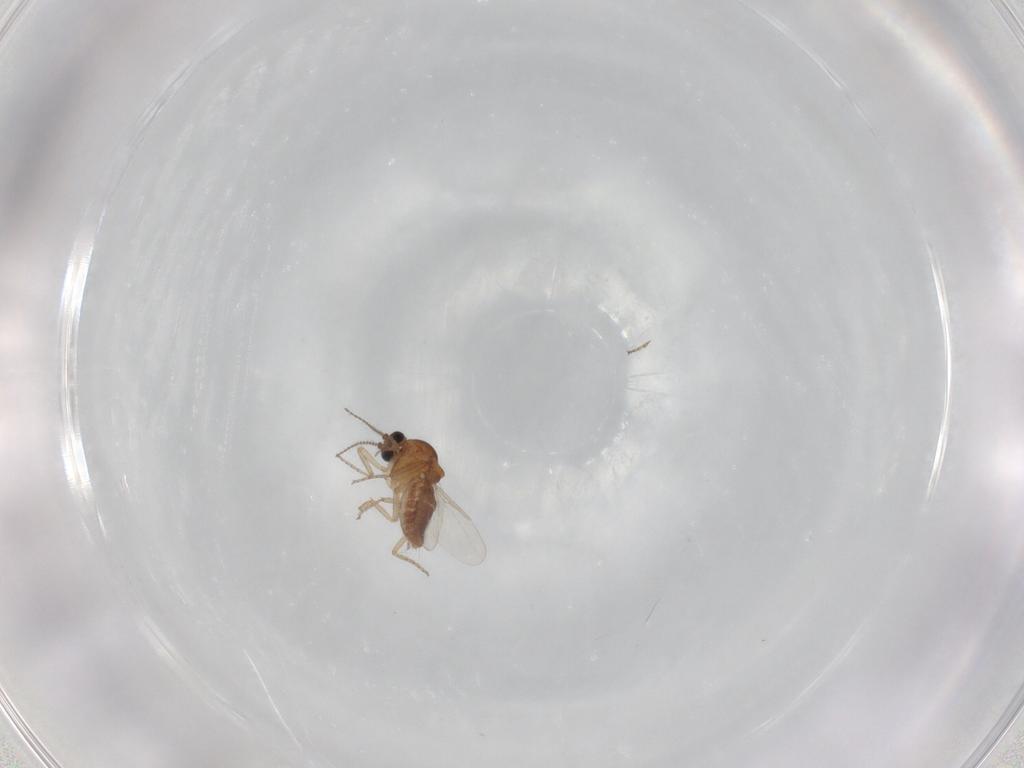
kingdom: Animalia
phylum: Arthropoda
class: Insecta
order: Diptera
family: Ceratopogonidae
